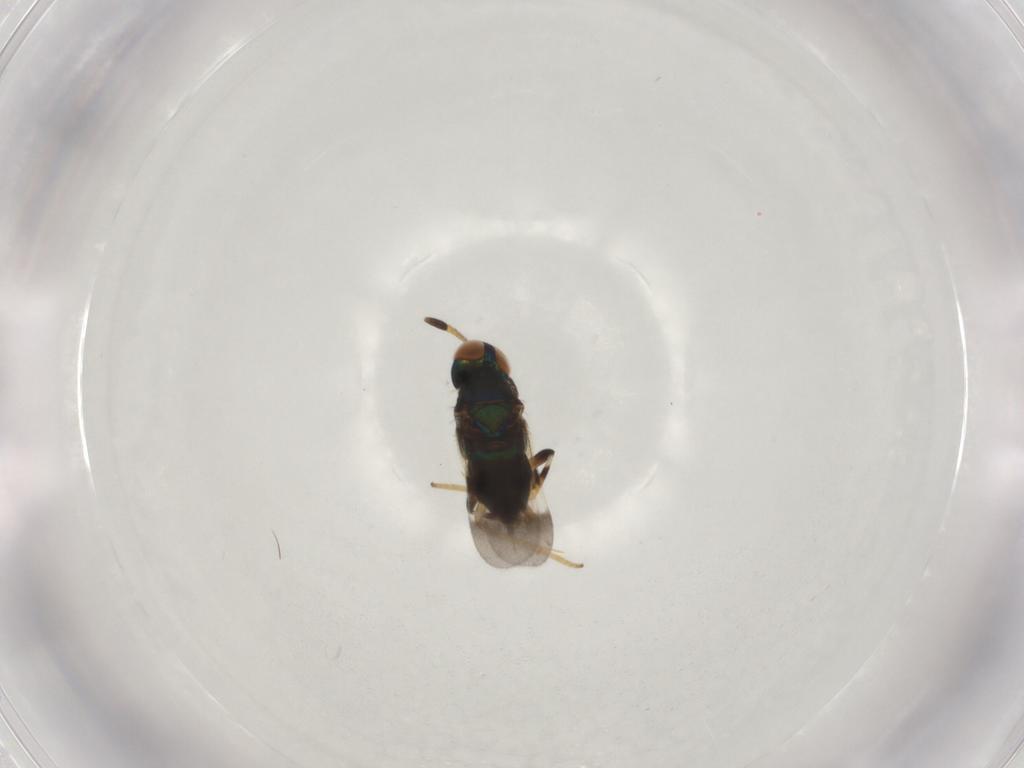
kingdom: Animalia
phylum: Arthropoda
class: Insecta
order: Hymenoptera
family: Encyrtidae
